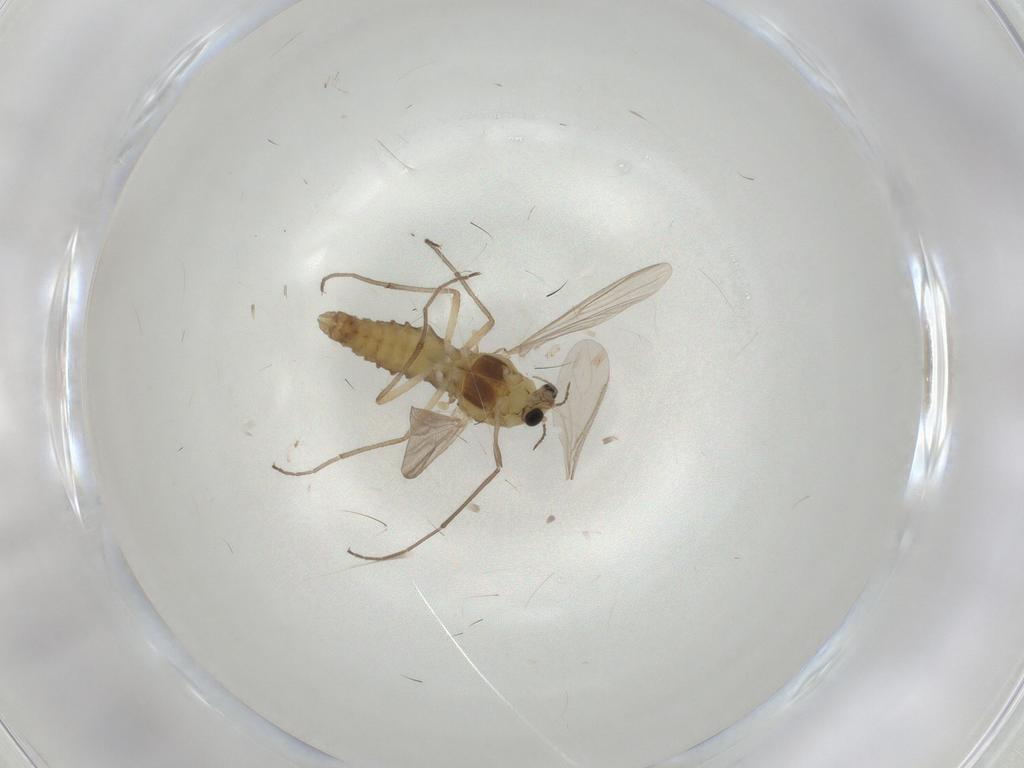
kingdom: Animalia
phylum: Arthropoda
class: Insecta
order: Diptera
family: Chironomidae
